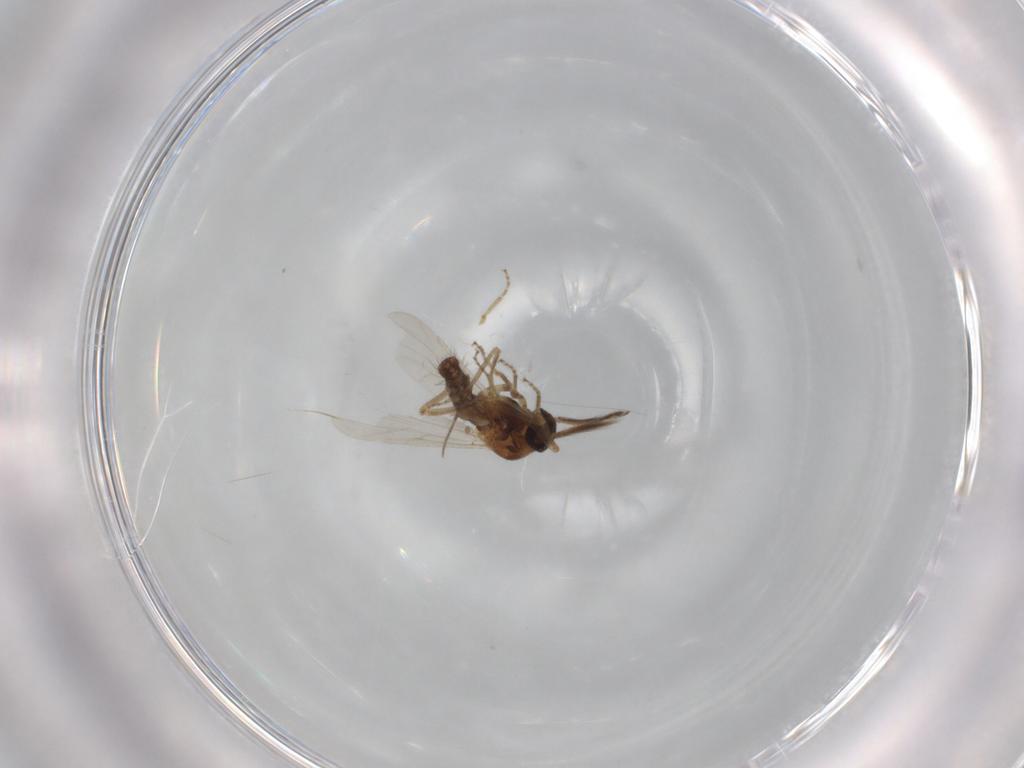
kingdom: Animalia
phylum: Arthropoda
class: Insecta
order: Diptera
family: Ceratopogonidae
